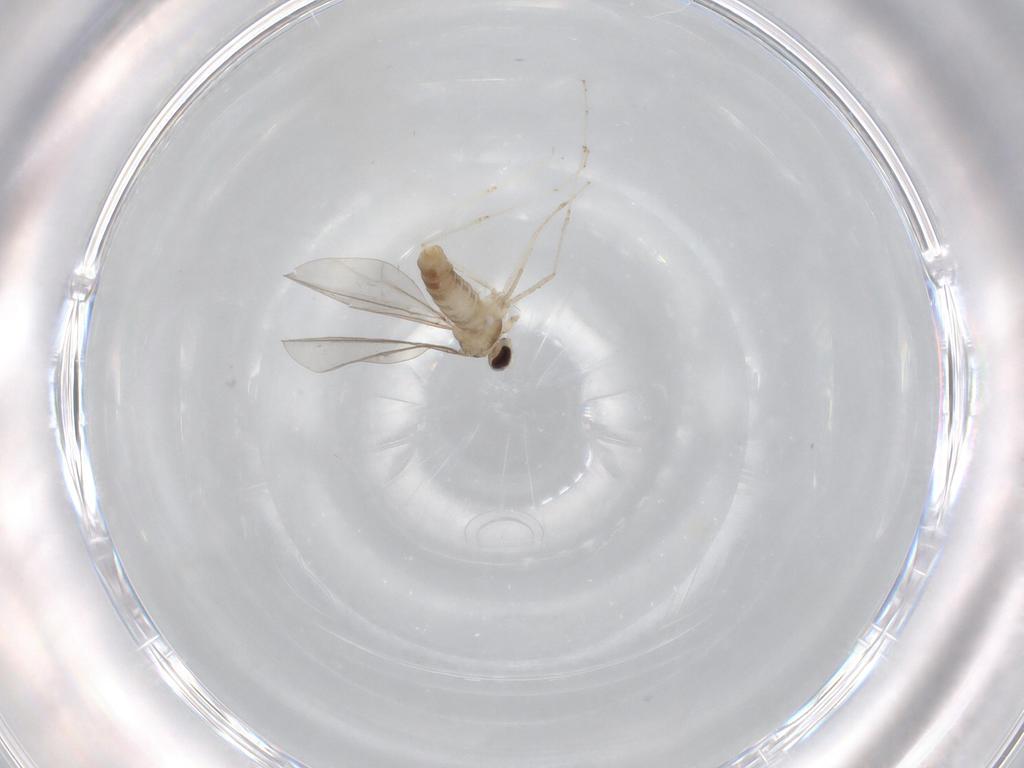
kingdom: Animalia
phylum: Arthropoda
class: Insecta
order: Diptera
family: Cecidomyiidae
